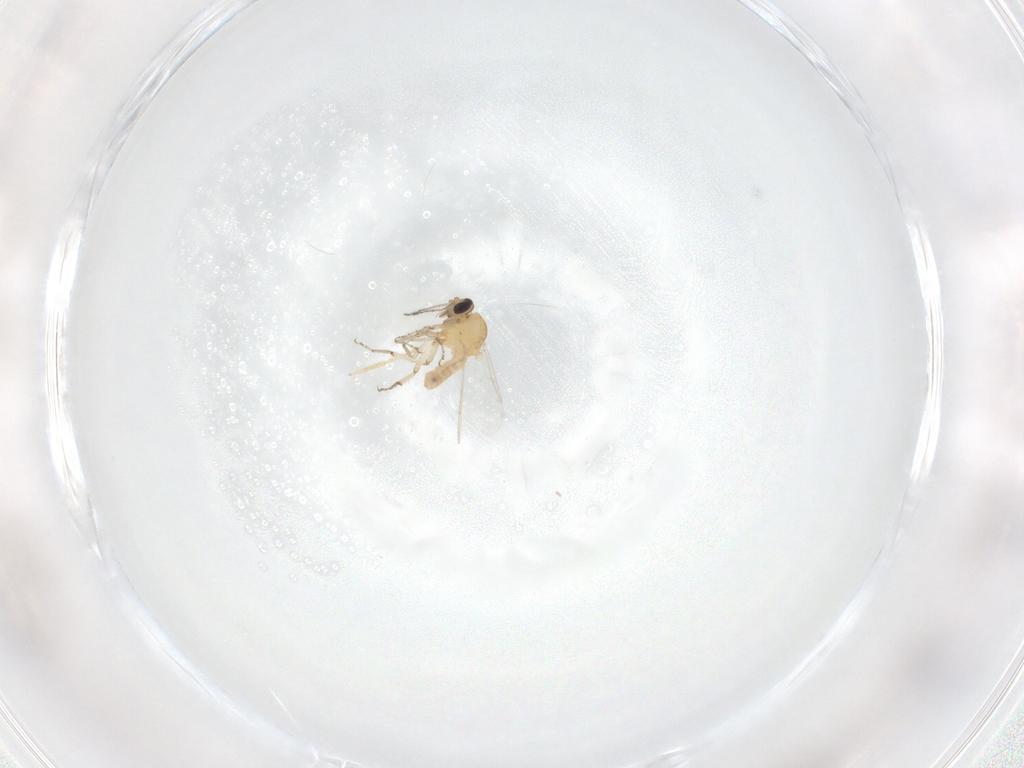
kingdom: Animalia
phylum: Arthropoda
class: Insecta
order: Diptera
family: Ceratopogonidae
